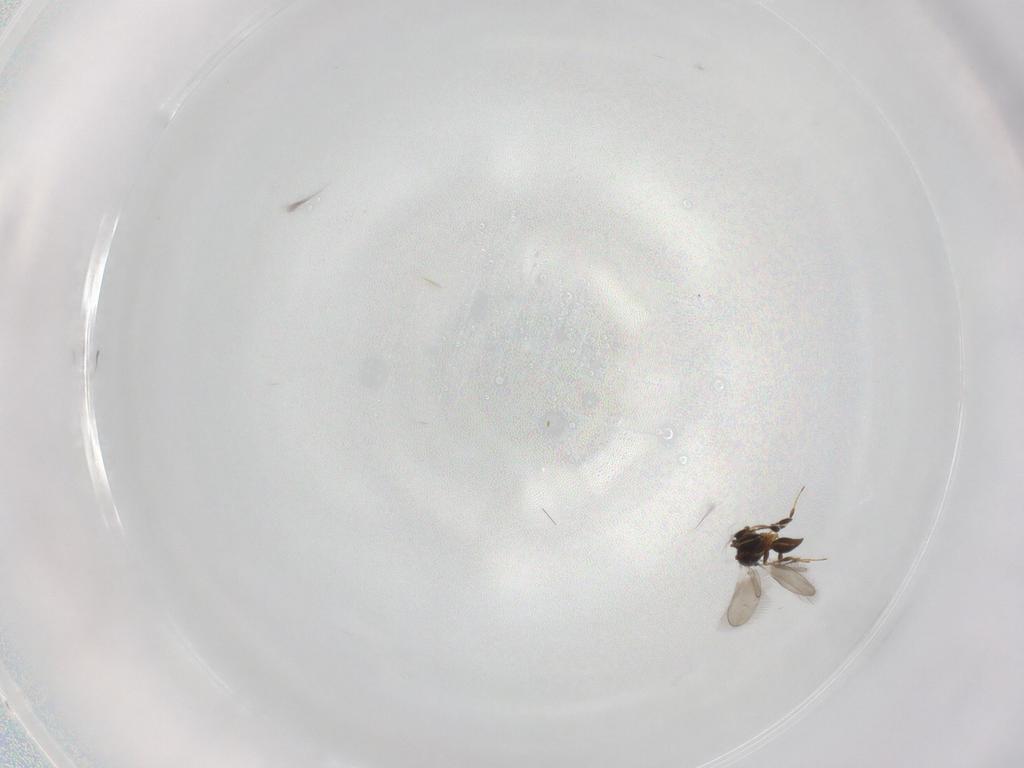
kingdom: Animalia
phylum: Arthropoda
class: Insecta
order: Hymenoptera
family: Platygastridae
